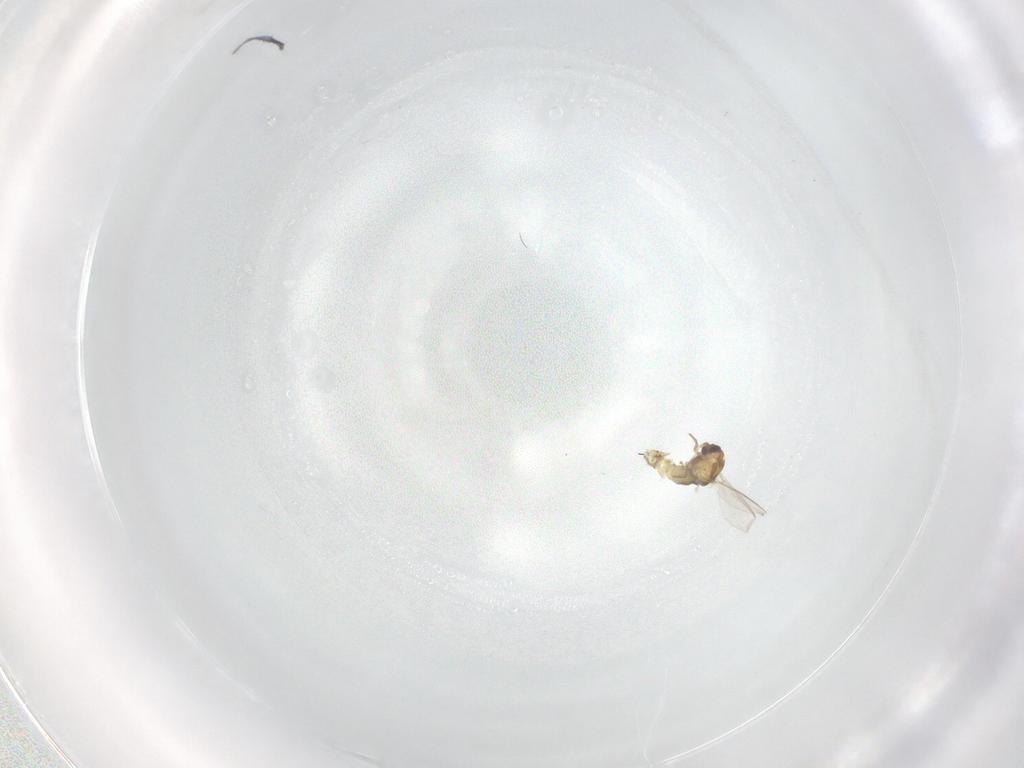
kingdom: Animalia
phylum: Arthropoda
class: Insecta
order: Diptera
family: Chironomidae
